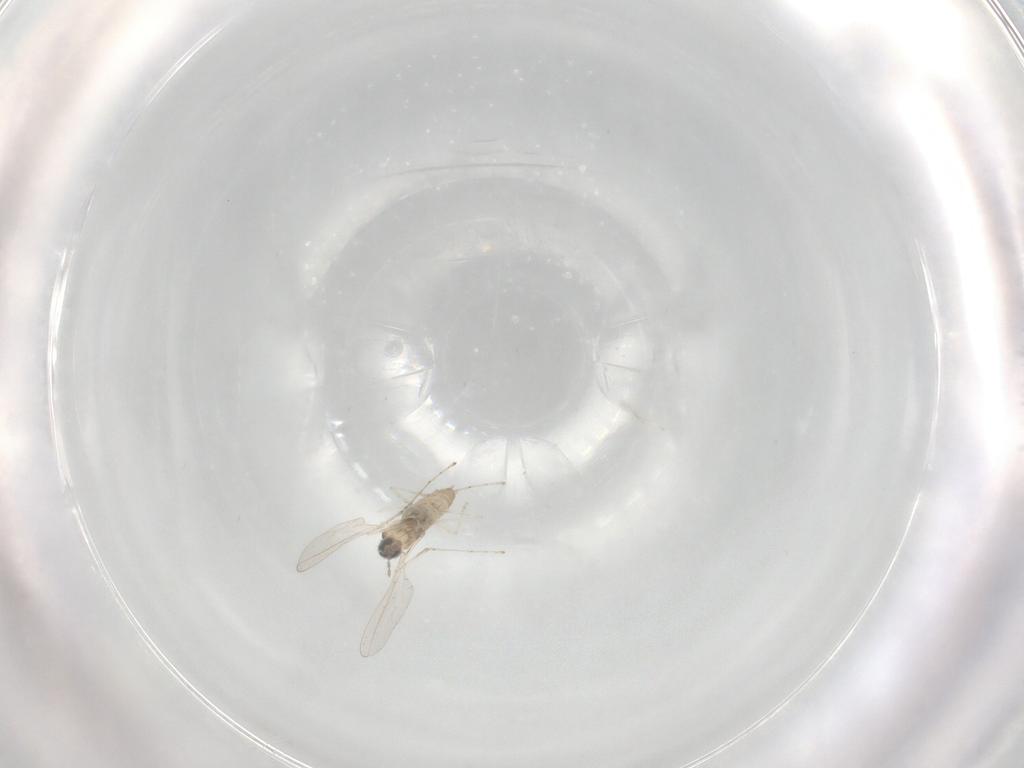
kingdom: Animalia
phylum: Arthropoda
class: Insecta
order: Diptera
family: Cecidomyiidae
